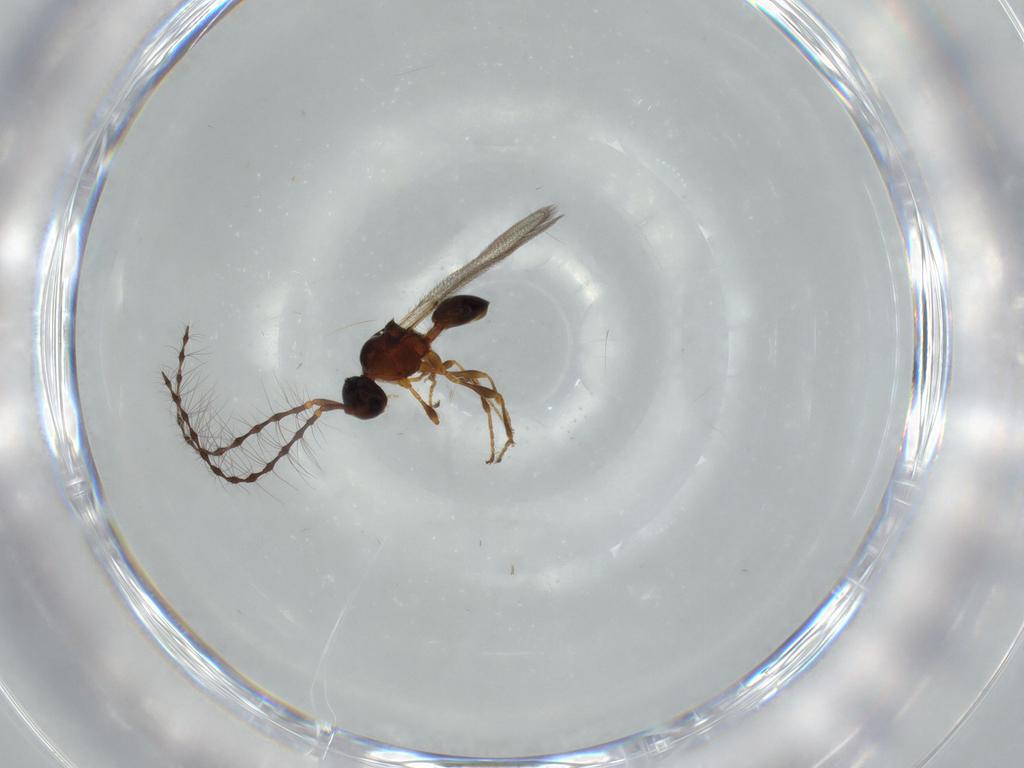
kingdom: Animalia
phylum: Arthropoda
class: Insecta
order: Hymenoptera
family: Diapriidae
